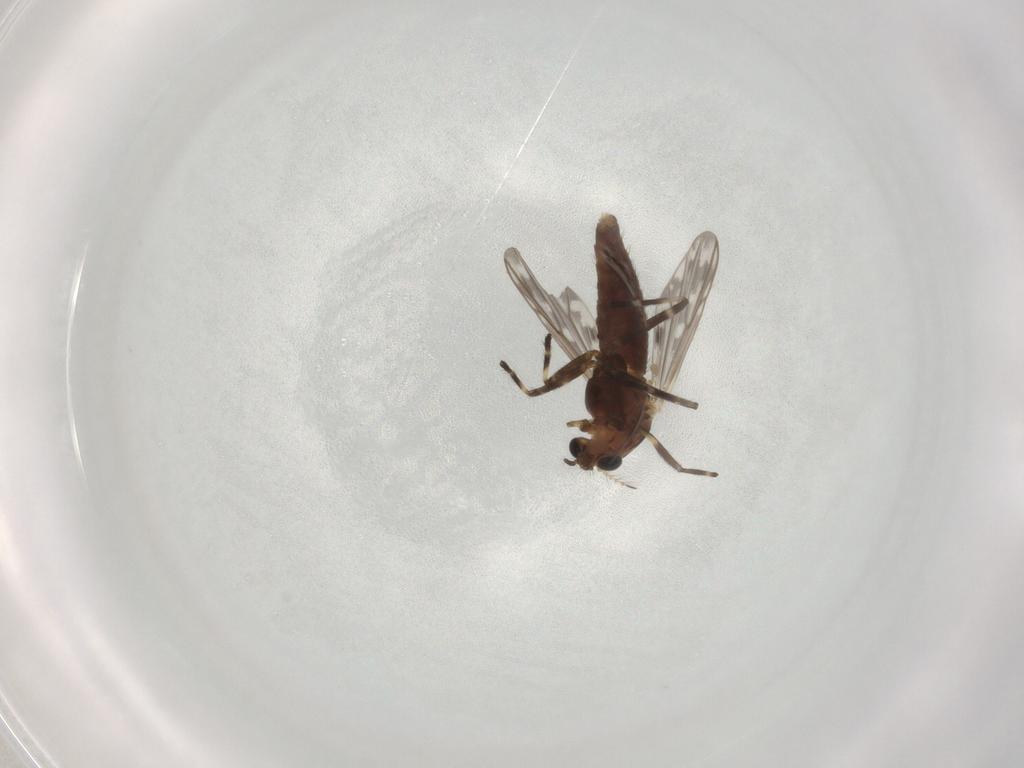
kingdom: Animalia
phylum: Arthropoda
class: Insecta
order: Diptera
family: Chironomidae
